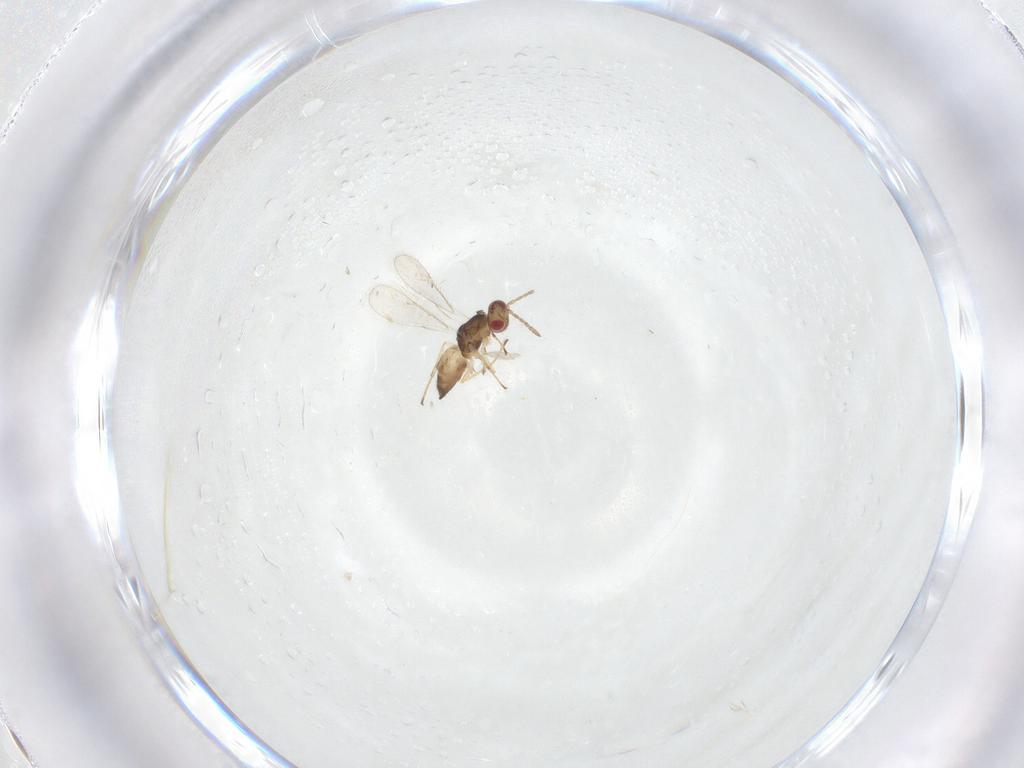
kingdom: Animalia
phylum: Arthropoda
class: Insecta
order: Hymenoptera
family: Eulophidae
